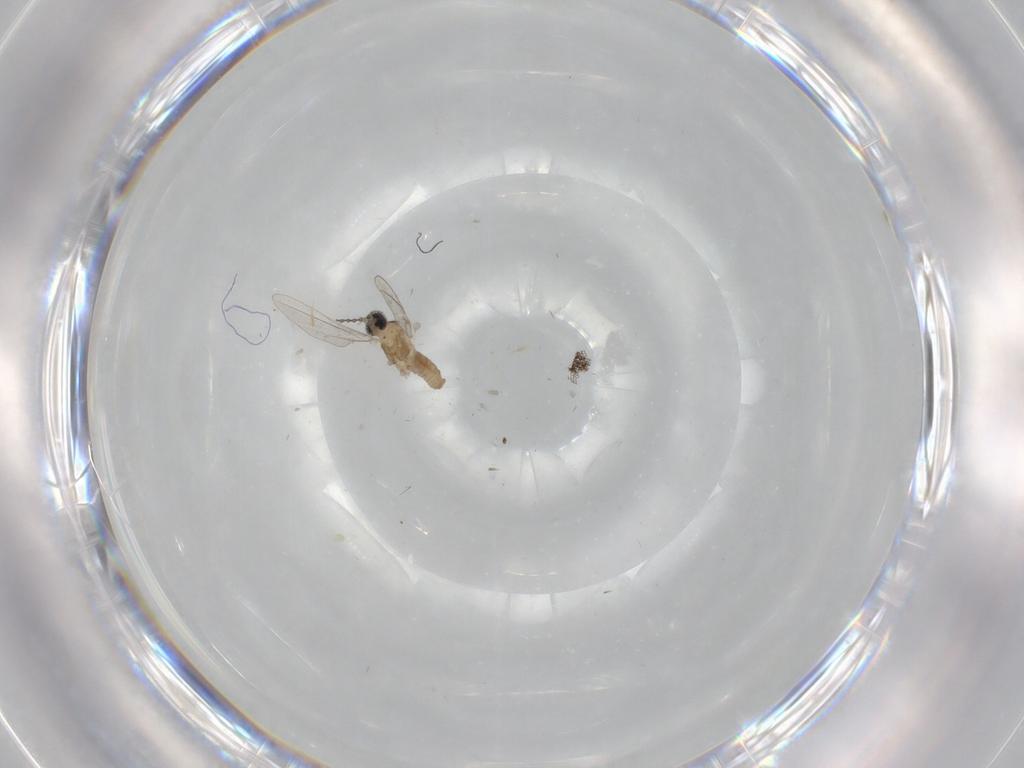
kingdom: Animalia
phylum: Arthropoda
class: Insecta
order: Diptera
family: Cecidomyiidae
